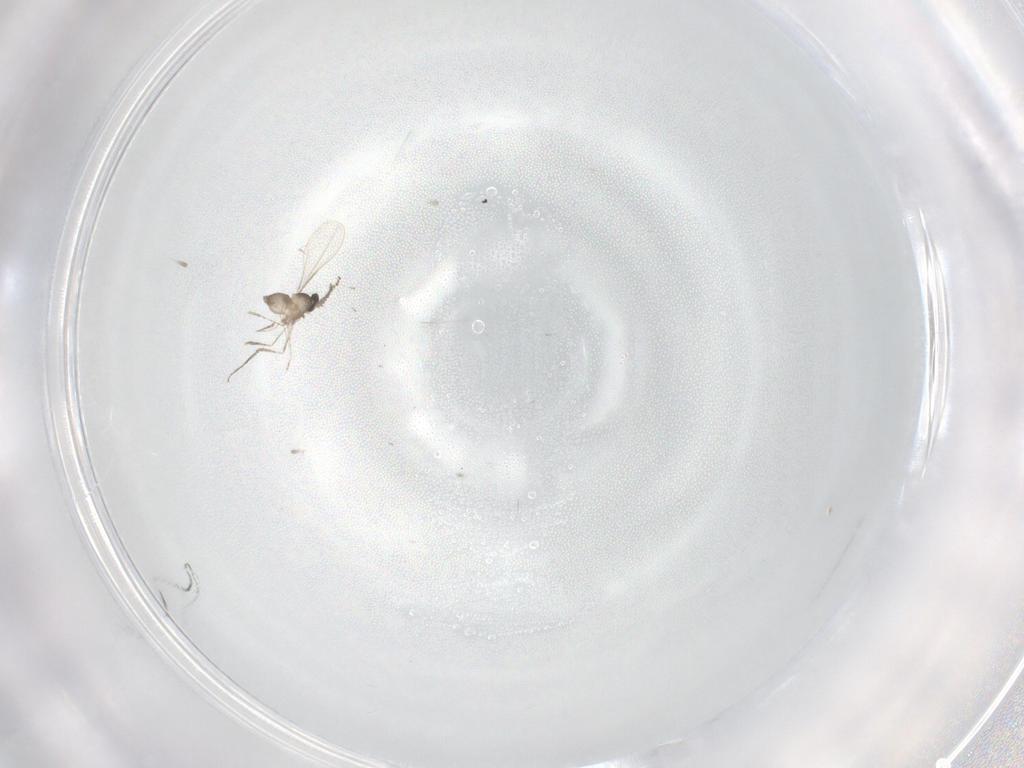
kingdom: Animalia
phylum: Arthropoda
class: Insecta
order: Diptera
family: Cecidomyiidae
